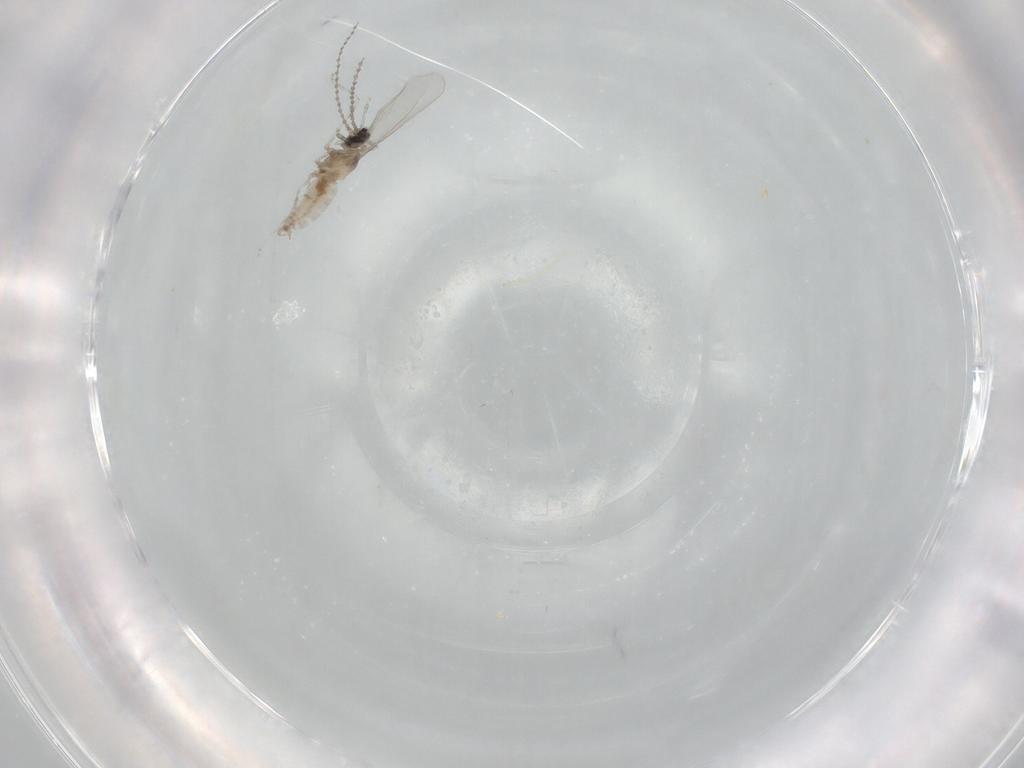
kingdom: Animalia
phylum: Arthropoda
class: Insecta
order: Diptera
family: Cecidomyiidae
